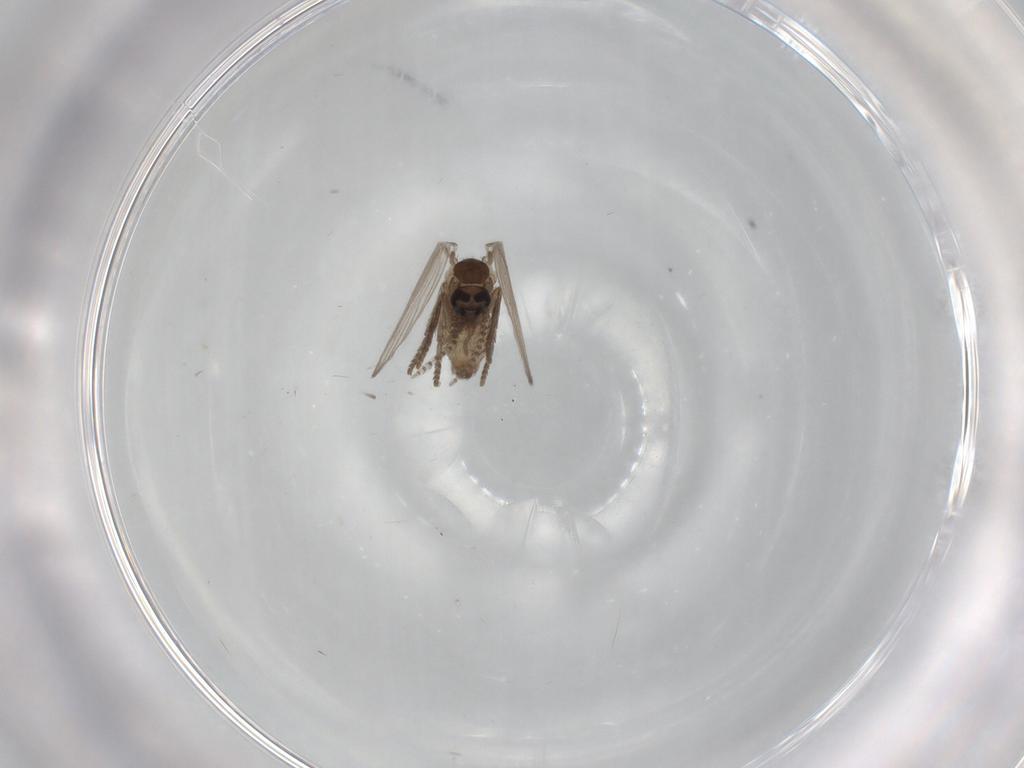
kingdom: Animalia
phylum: Arthropoda
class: Insecta
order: Diptera
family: Psychodidae
